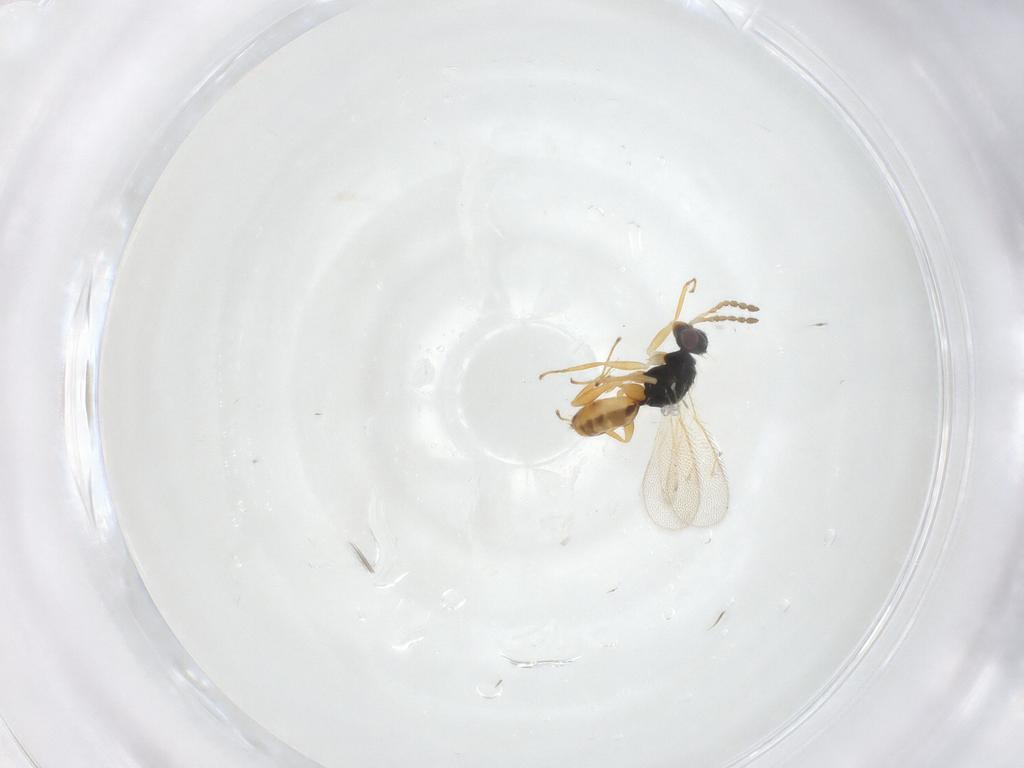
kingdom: Animalia
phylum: Arthropoda
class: Insecta
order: Hymenoptera
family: Eulophidae
